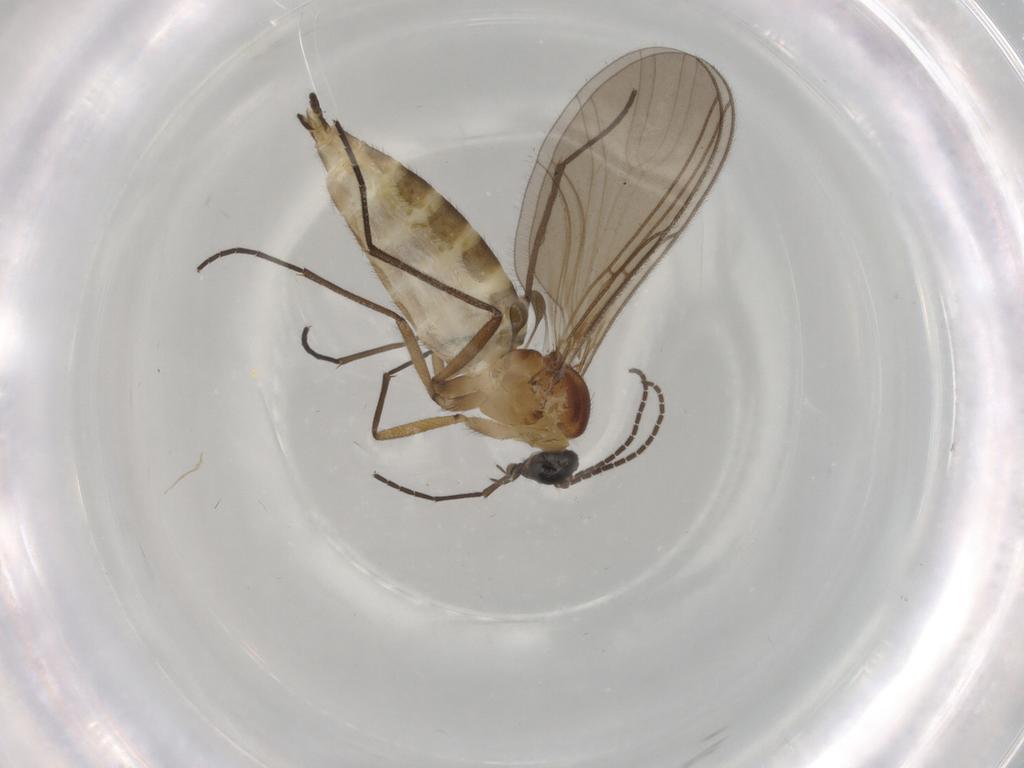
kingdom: Animalia
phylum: Arthropoda
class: Insecta
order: Diptera
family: Sciaridae
